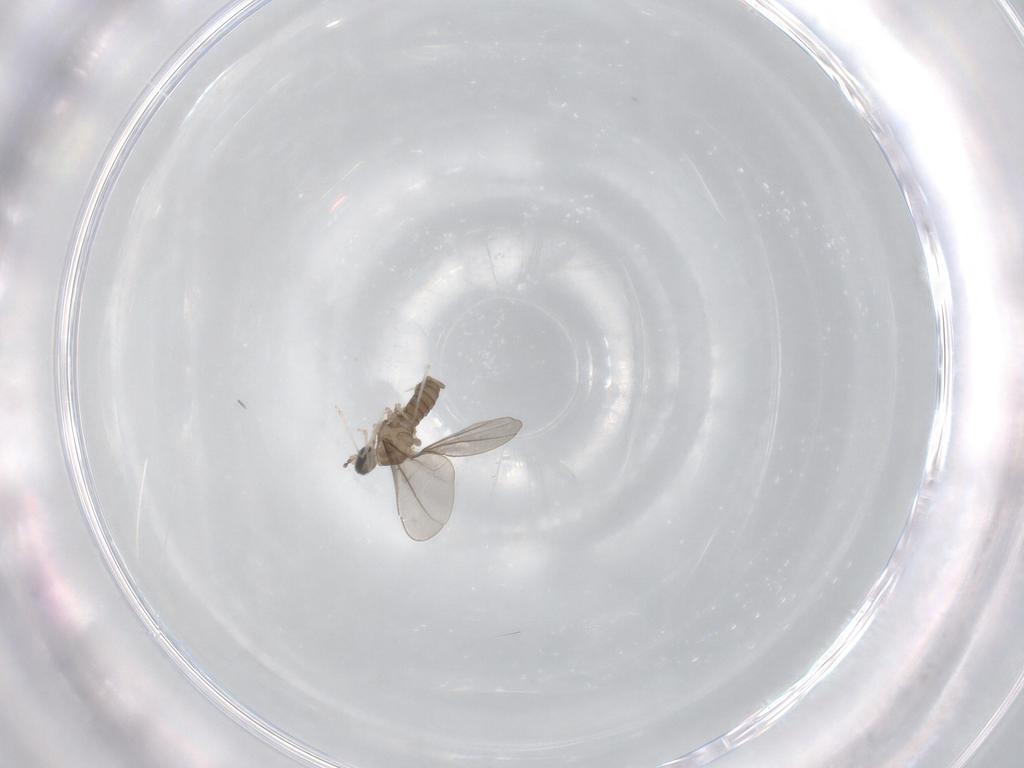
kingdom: Animalia
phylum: Arthropoda
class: Insecta
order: Diptera
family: Cecidomyiidae
